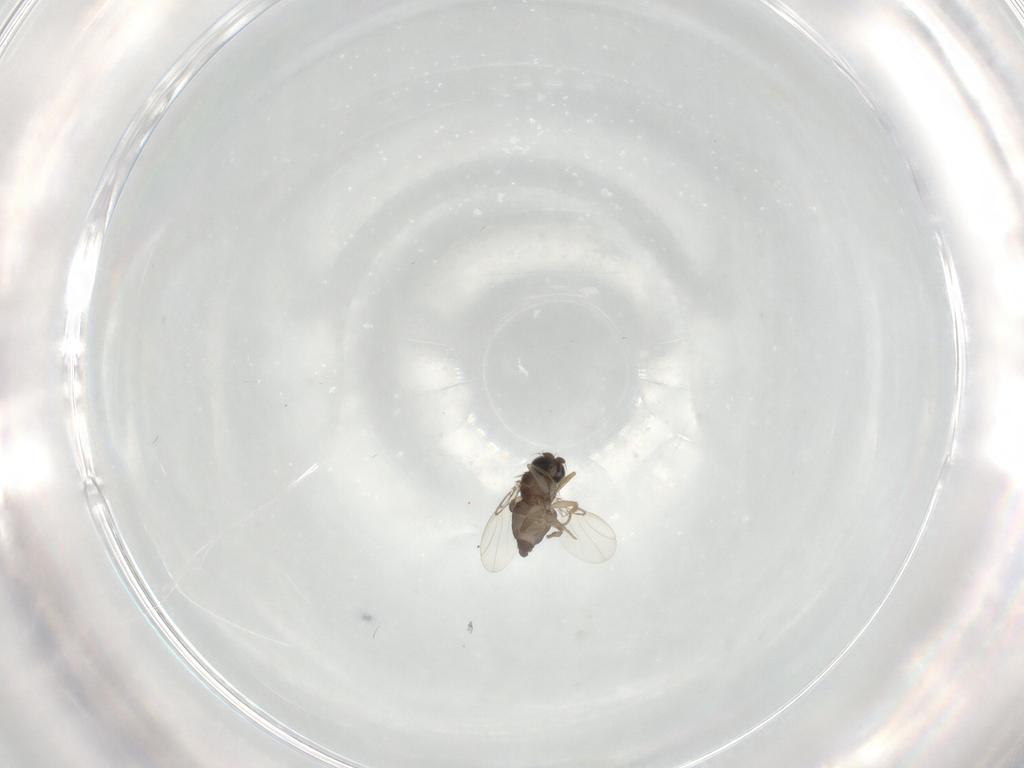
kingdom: Animalia
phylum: Arthropoda
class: Insecta
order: Diptera
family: Phoridae
